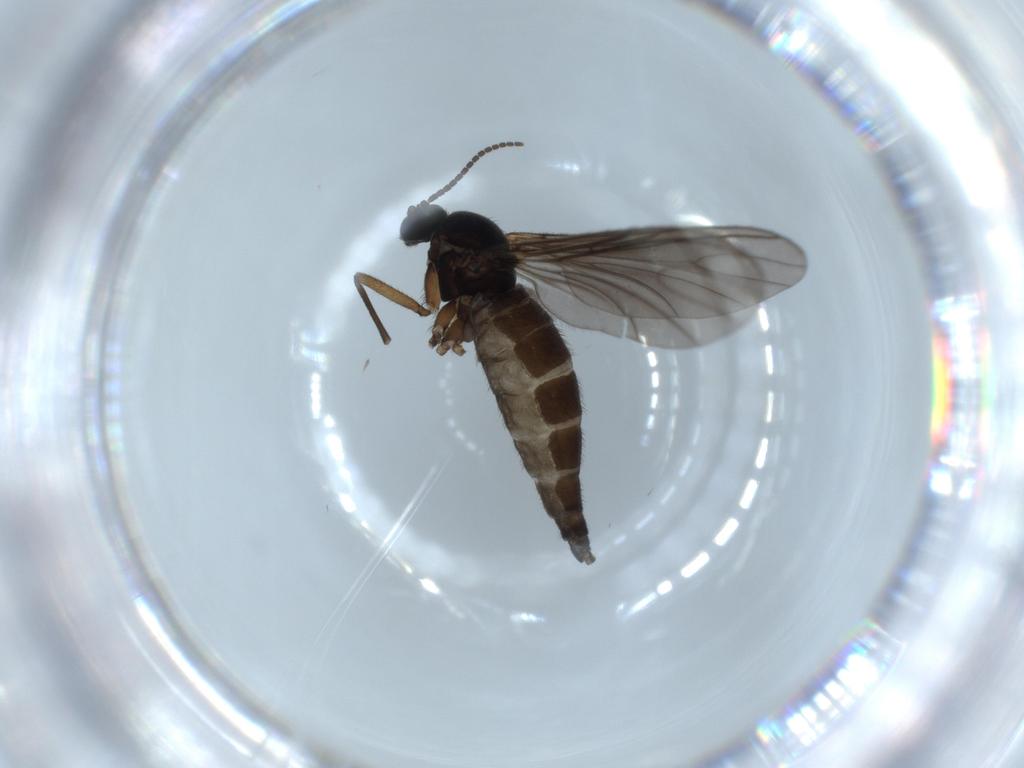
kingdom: Animalia
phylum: Arthropoda
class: Insecta
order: Diptera
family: Sciaridae
